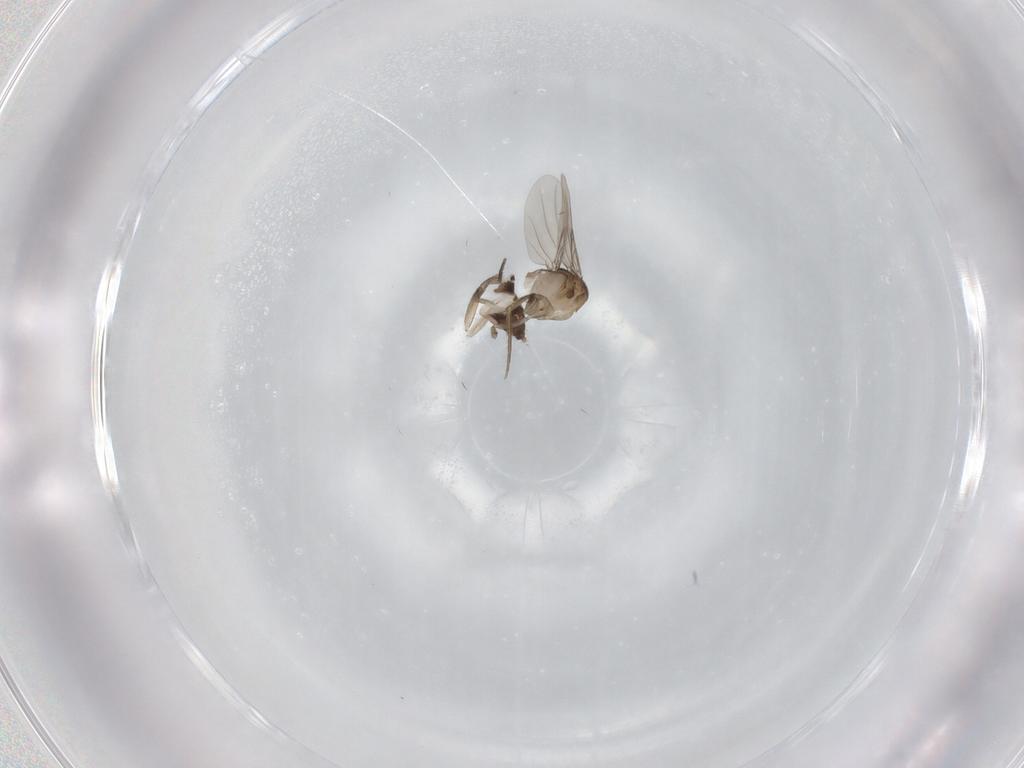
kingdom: Animalia
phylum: Arthropoda
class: Insecta
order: Diptera
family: Phoridae
